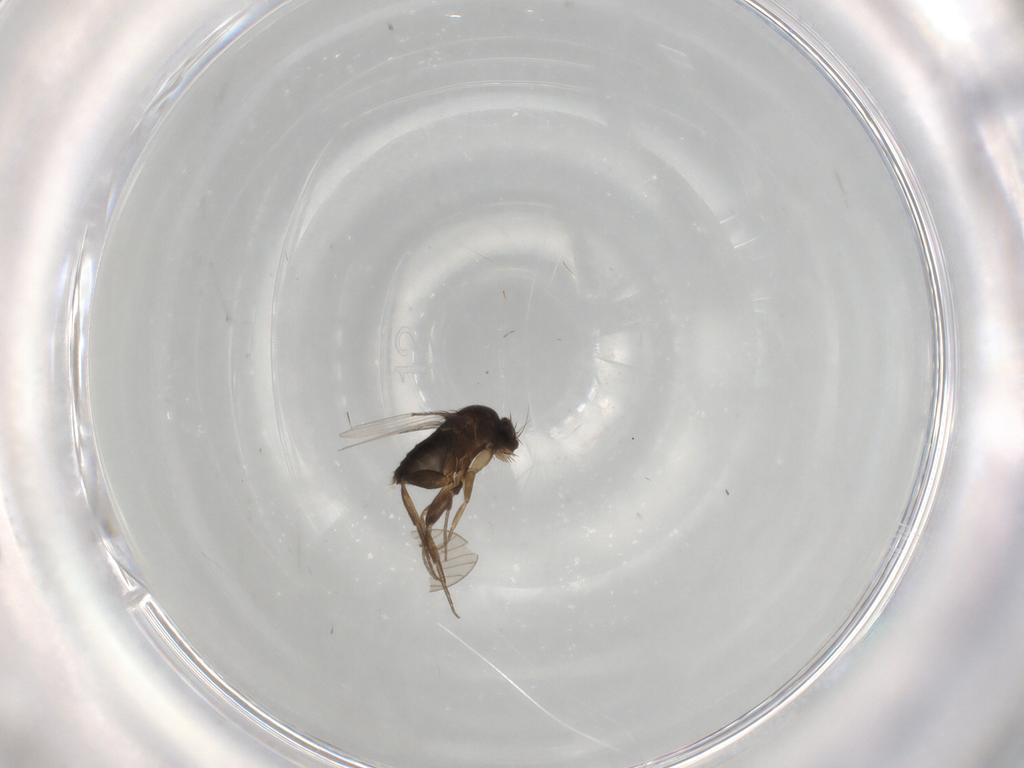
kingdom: Animalia
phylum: Arthropoda
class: Insecta
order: Diptera
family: Phoridae
